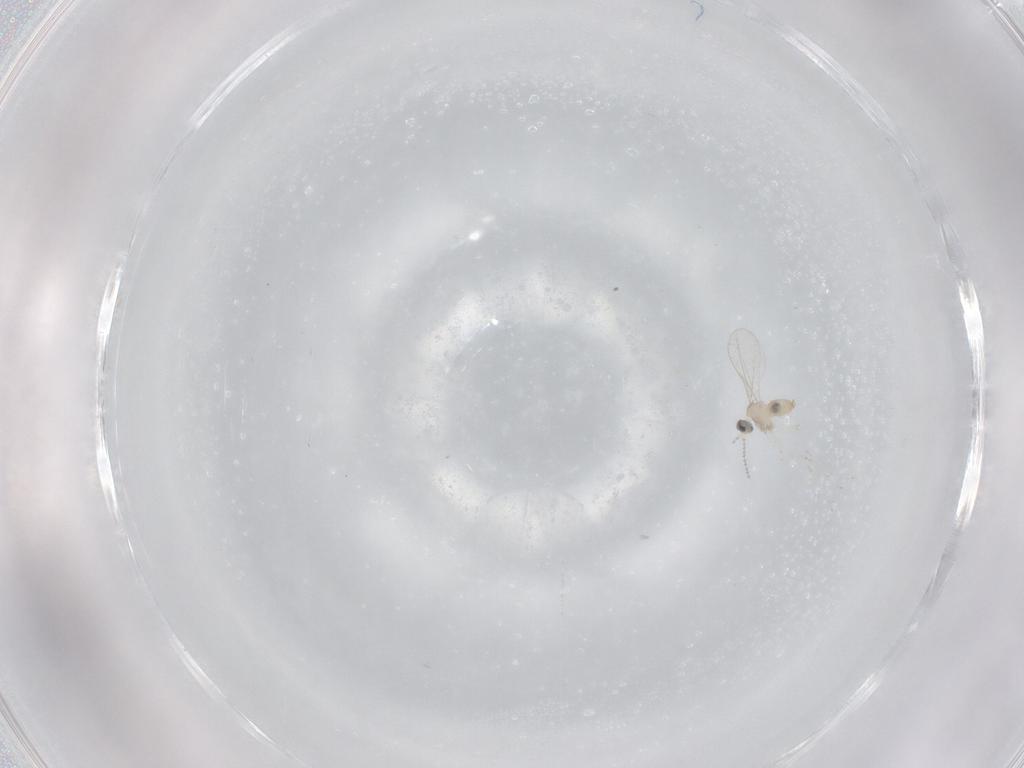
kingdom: Animalia
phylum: Arthropoda
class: Insecta
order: Diptera
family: Cecidomyiidae
